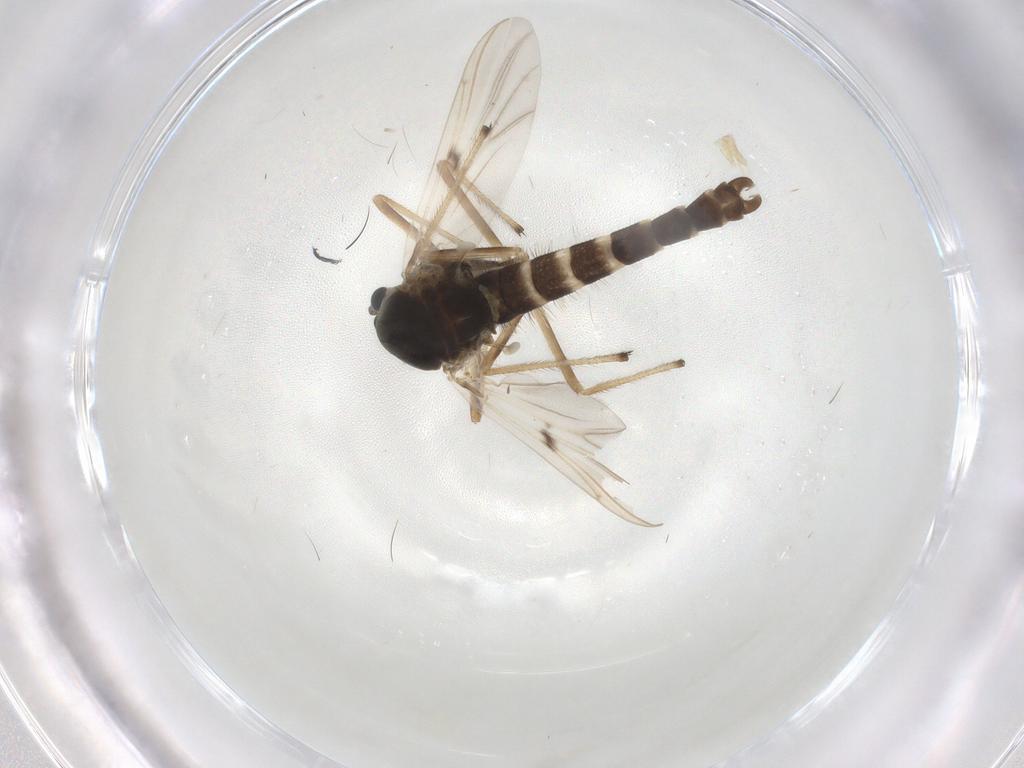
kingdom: Animalia
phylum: Arthropoda
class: Insecta
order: Diptera
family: Chironomidae
